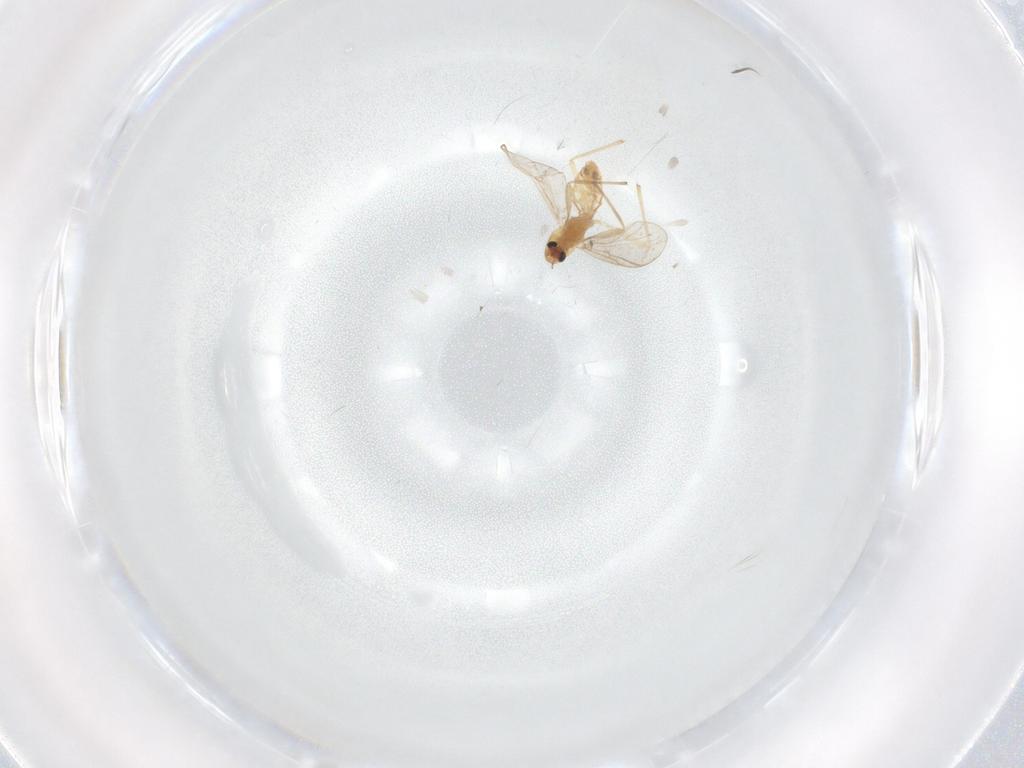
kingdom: Animalia
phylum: Arthropoda
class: Insecta
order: Diptera
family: Chironomidae
